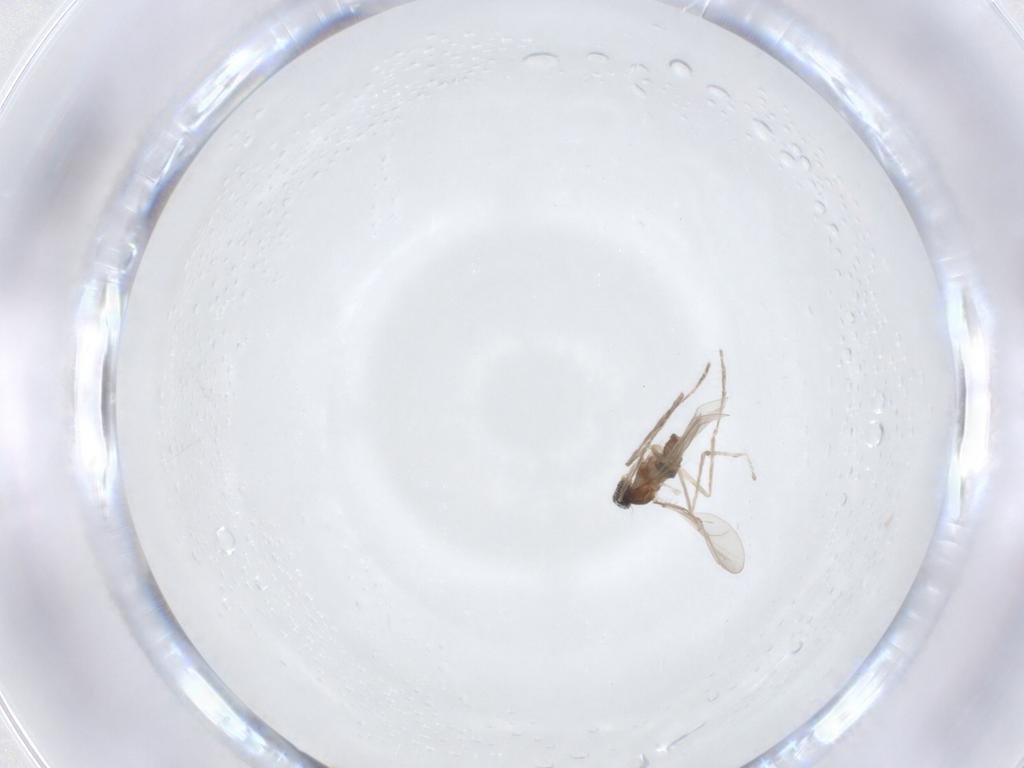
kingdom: Animalia
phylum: Arthropoda
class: Insecta
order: Diptera
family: Cecidomyiidae
